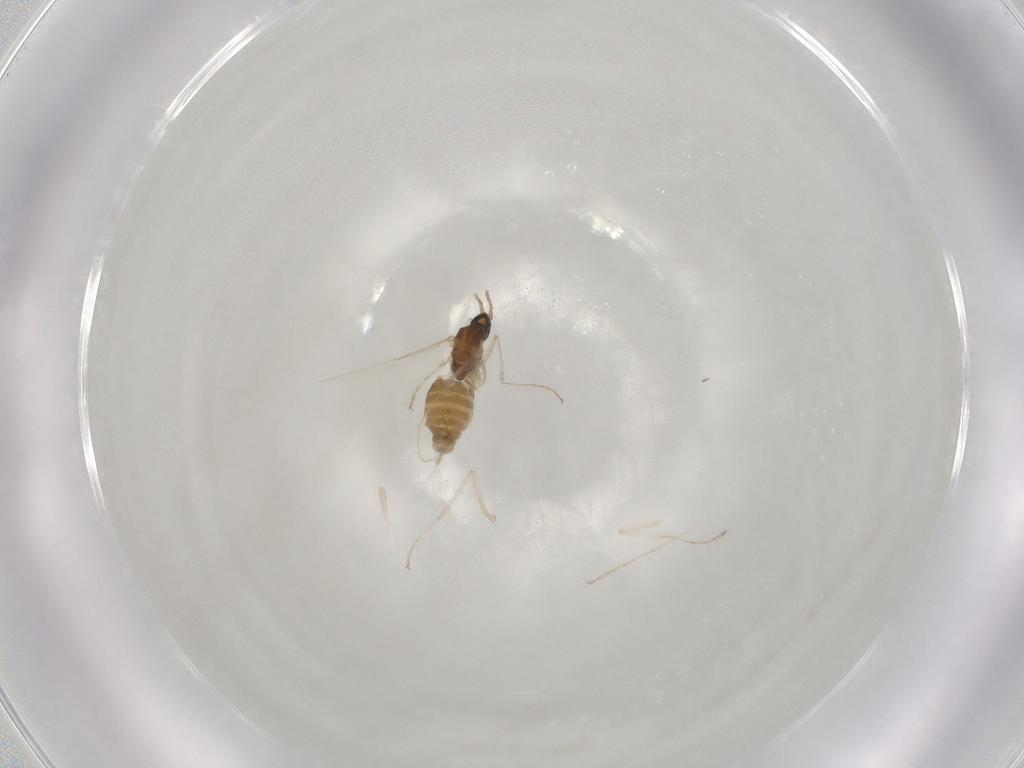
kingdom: Animalia
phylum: Arthropoda
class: Insecta
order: Diptera
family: Cecidomyiidae
